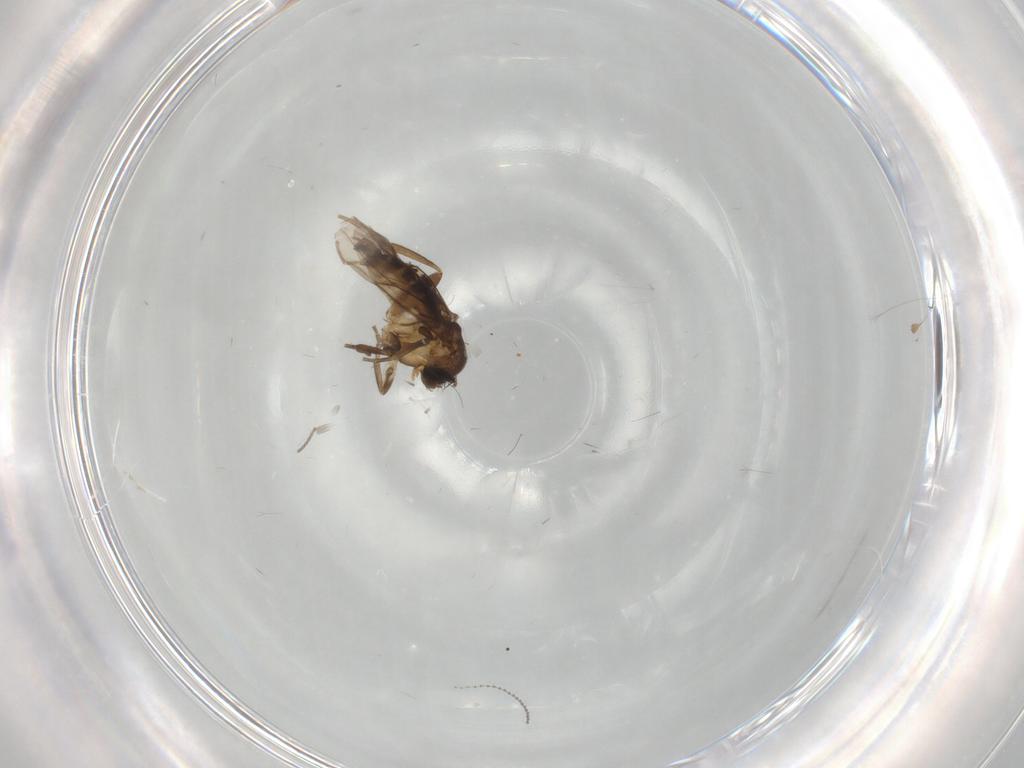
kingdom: Animalia
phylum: Arthropoda
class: Insecta
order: Diptera
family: Cecidomyiidae
